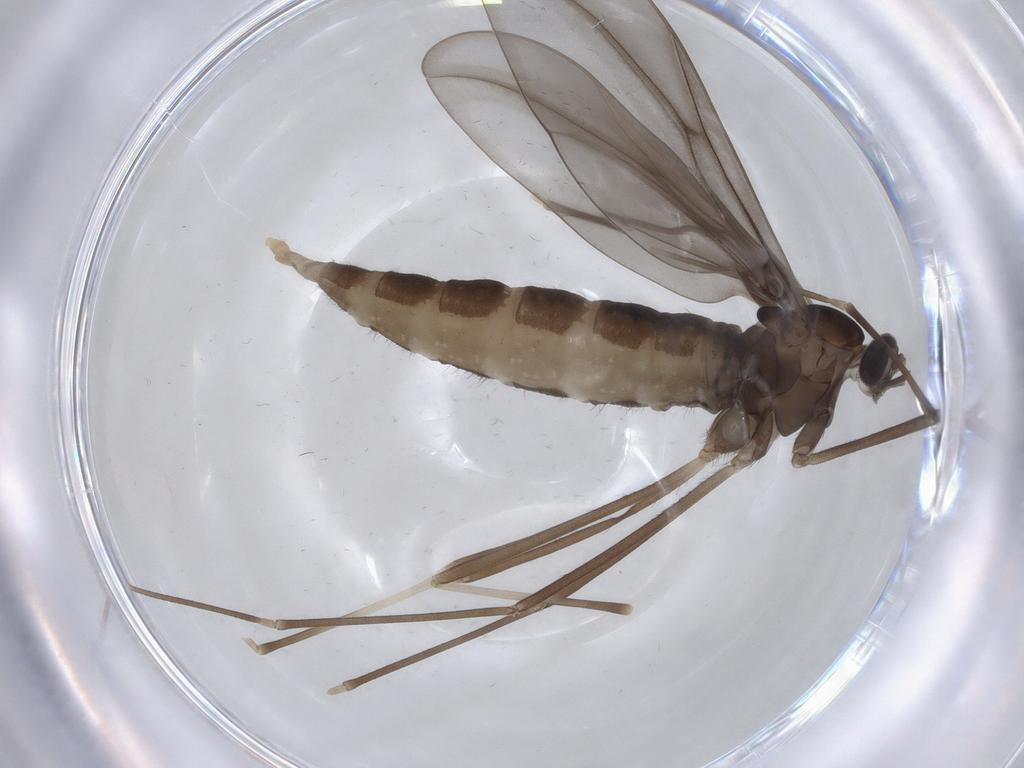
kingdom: Animalia
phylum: Arthropoda
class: Insecta
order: Diptera
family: Cecidomyiidae
